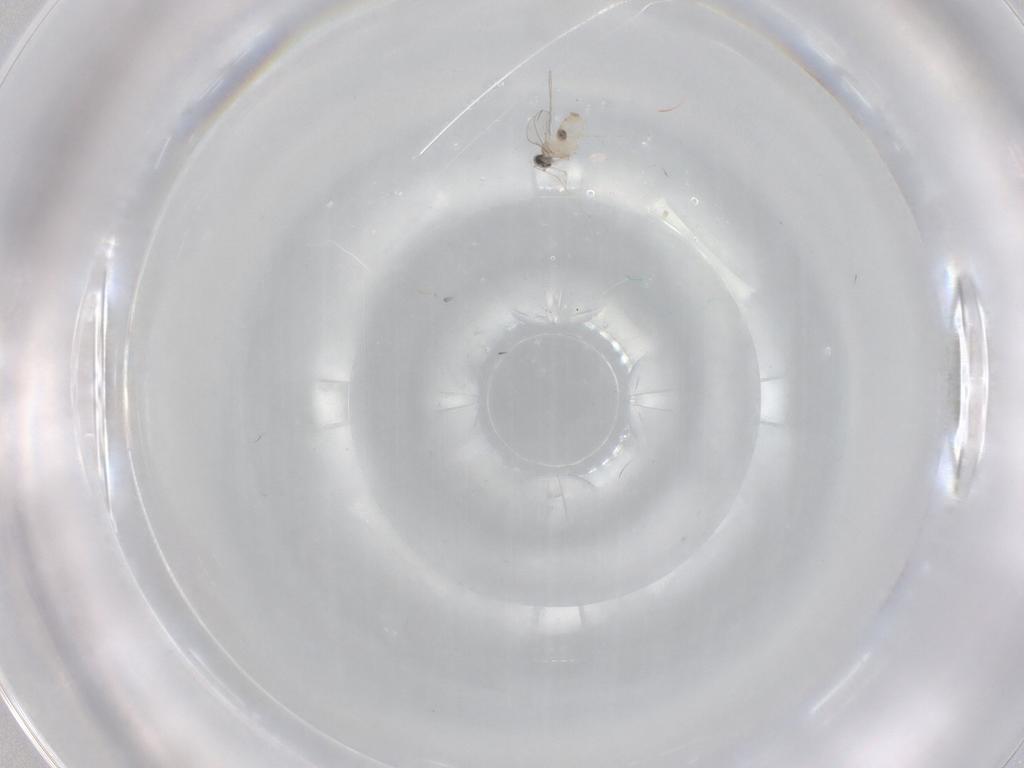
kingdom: Animalia
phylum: Arthropoda
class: Insecta
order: Diptera
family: Cecidomyiidae
